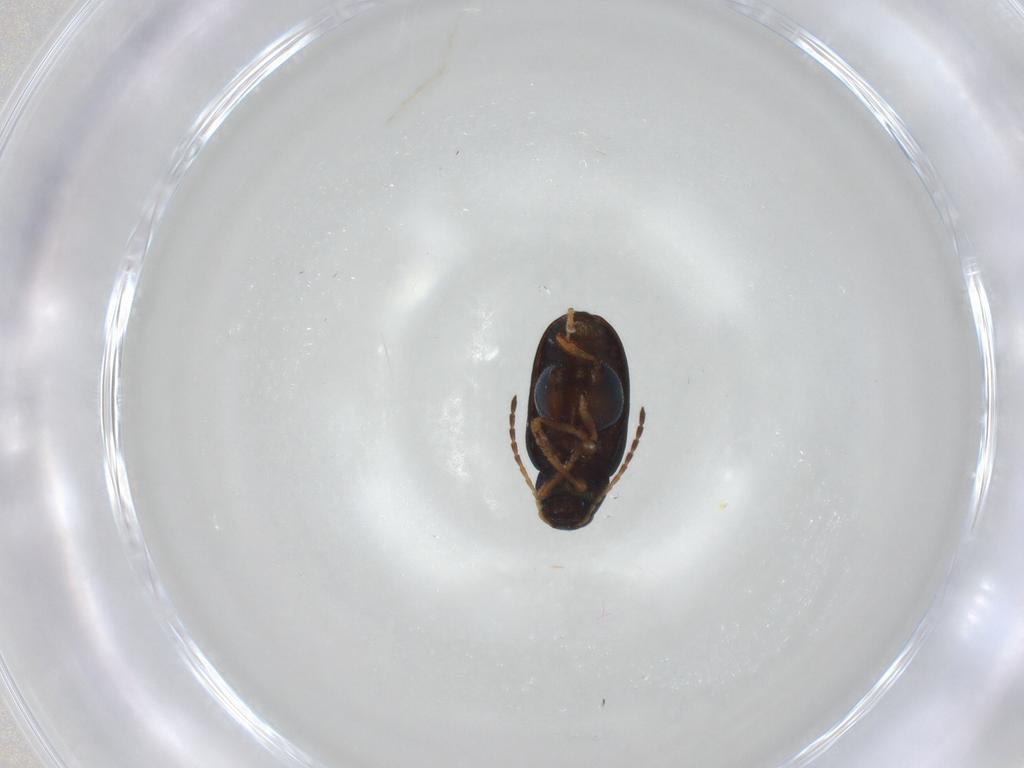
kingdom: Animalia
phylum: Arthropoda
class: Insecta
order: Coleoptera
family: Chrysomelidae
